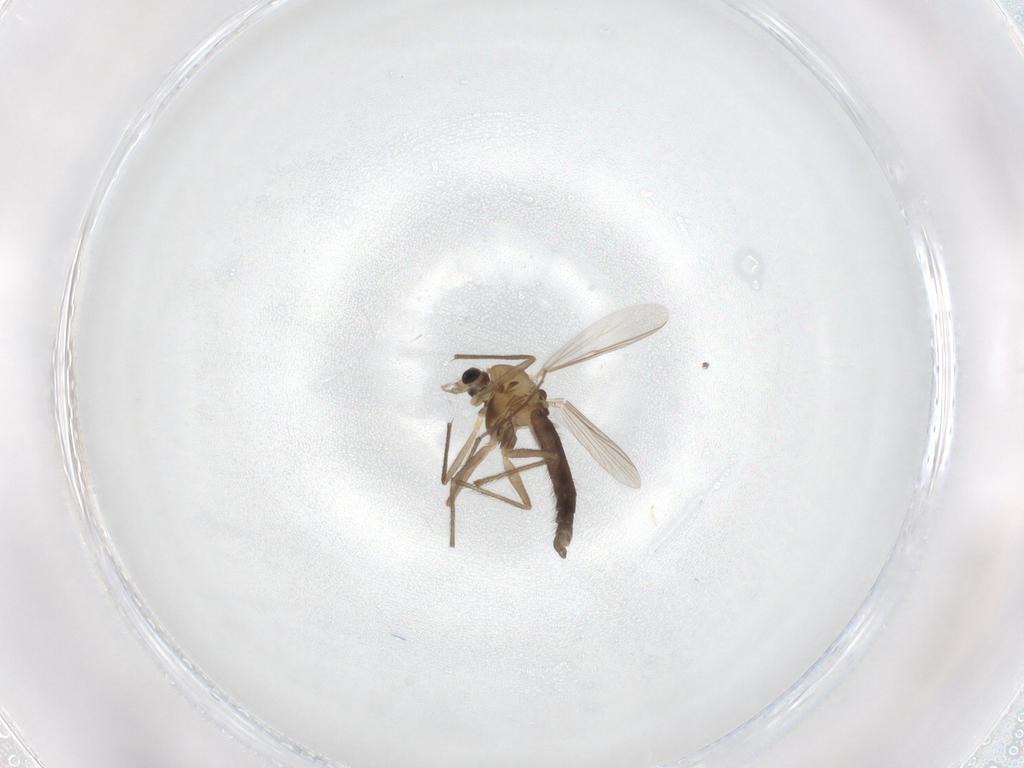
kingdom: Animalia
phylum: Arthropoda
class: Insecta
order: Diptera
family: Chironomidae
